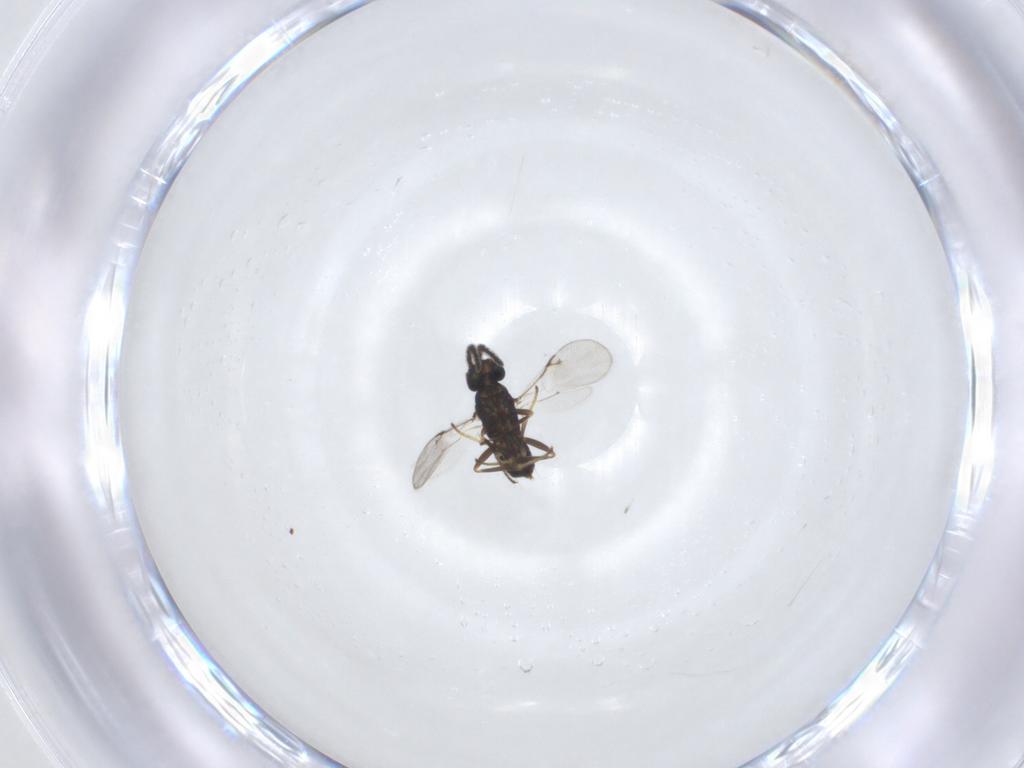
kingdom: Animalia
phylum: Arthropoda
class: Insecta
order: Hymenoptera
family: Encyrtidae
